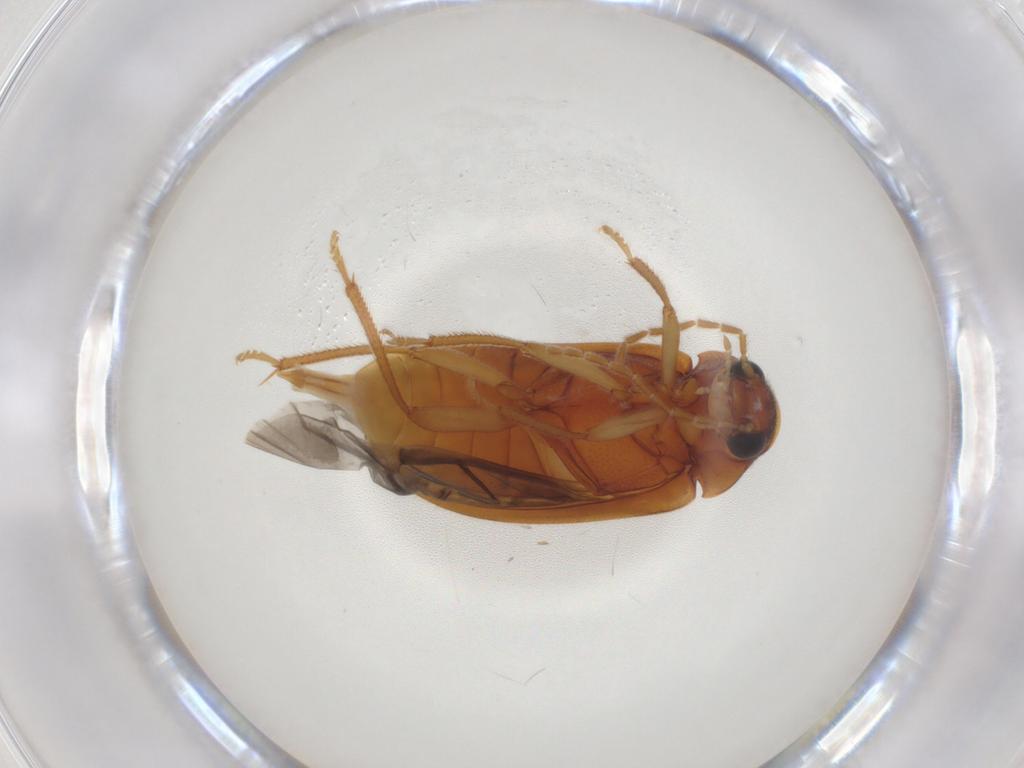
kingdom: Animalia
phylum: Arthropoda
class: Insecta
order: Coleoptera
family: Ptilodactylidae
